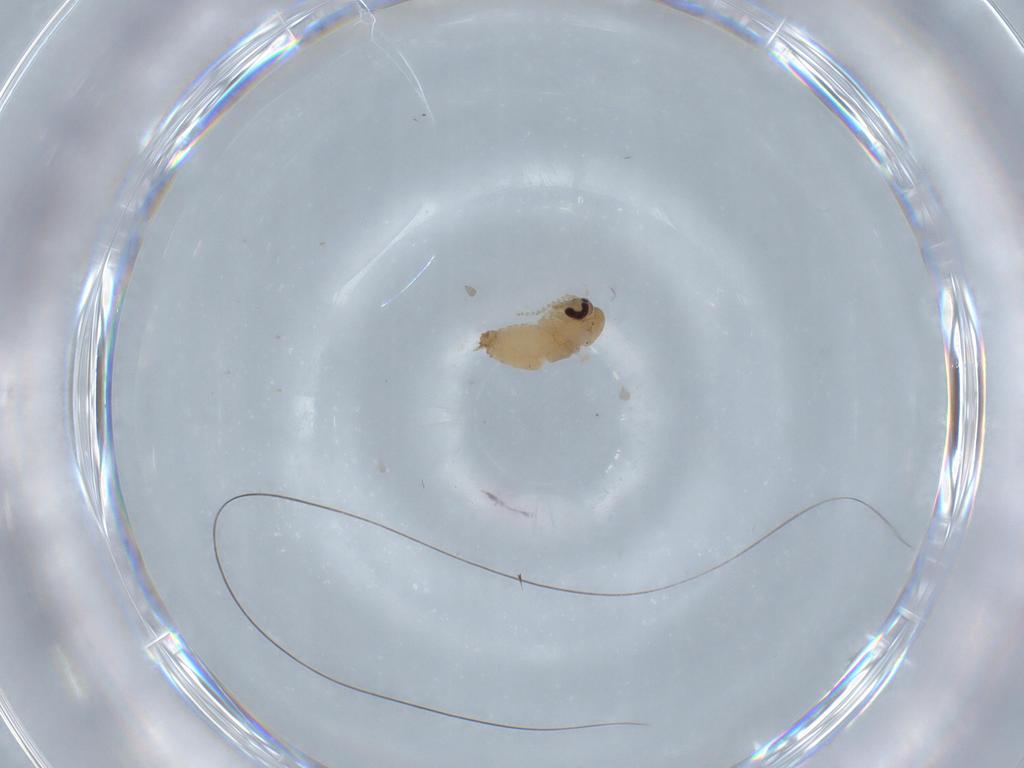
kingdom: Animalia
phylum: Arthropoda
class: Insecta
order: Diptera
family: Psychodidae
